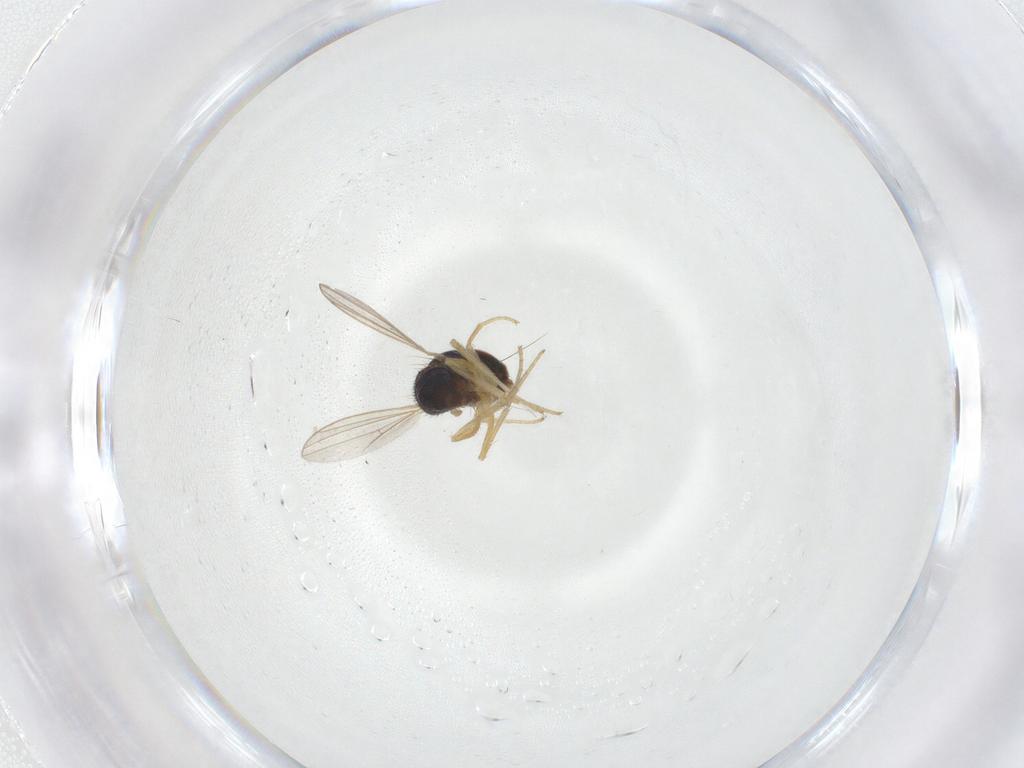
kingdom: Animalia
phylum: Arthropoda
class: Insecta
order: Diptera
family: Dolichopodidae
